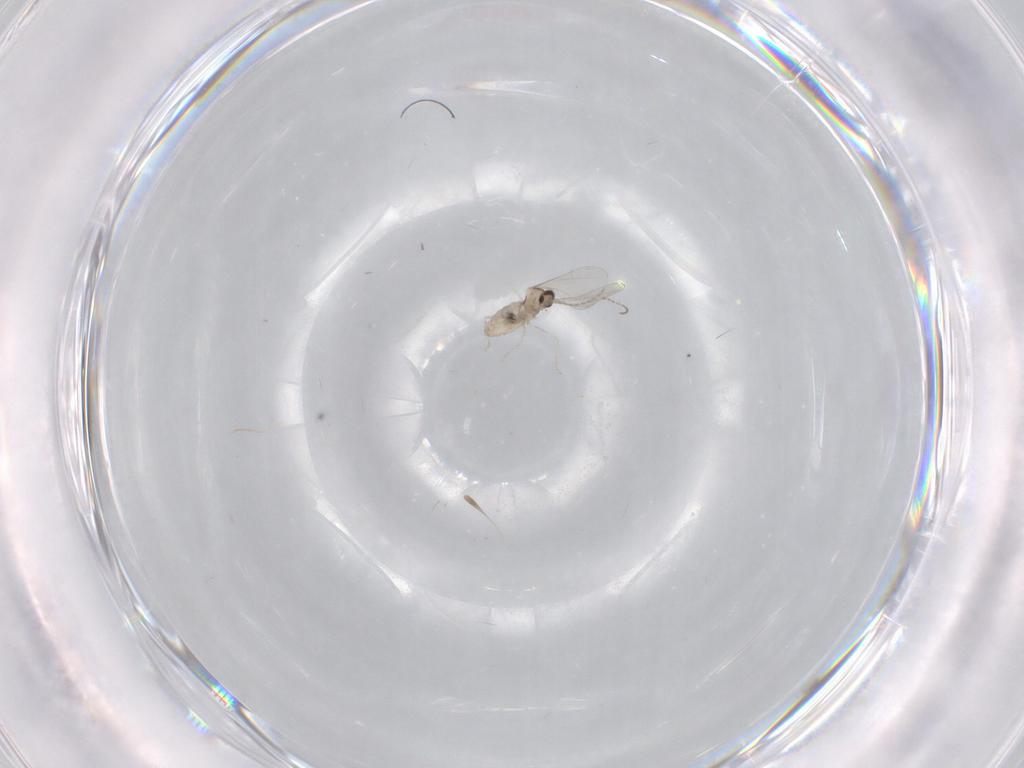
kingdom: Animalia
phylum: Arthropoda
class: Insecta
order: Diptera
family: Cecidomyiidae
